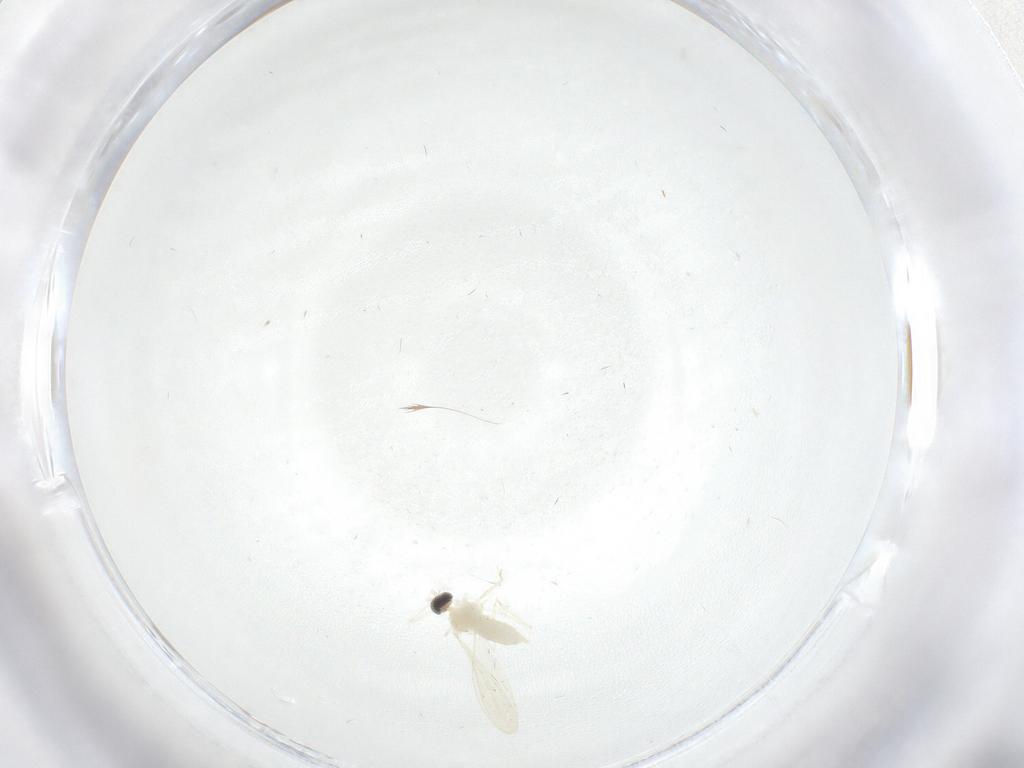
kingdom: Animalia
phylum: Arthropoda
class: Insecta
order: Diptera
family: Cecidomyiidae
